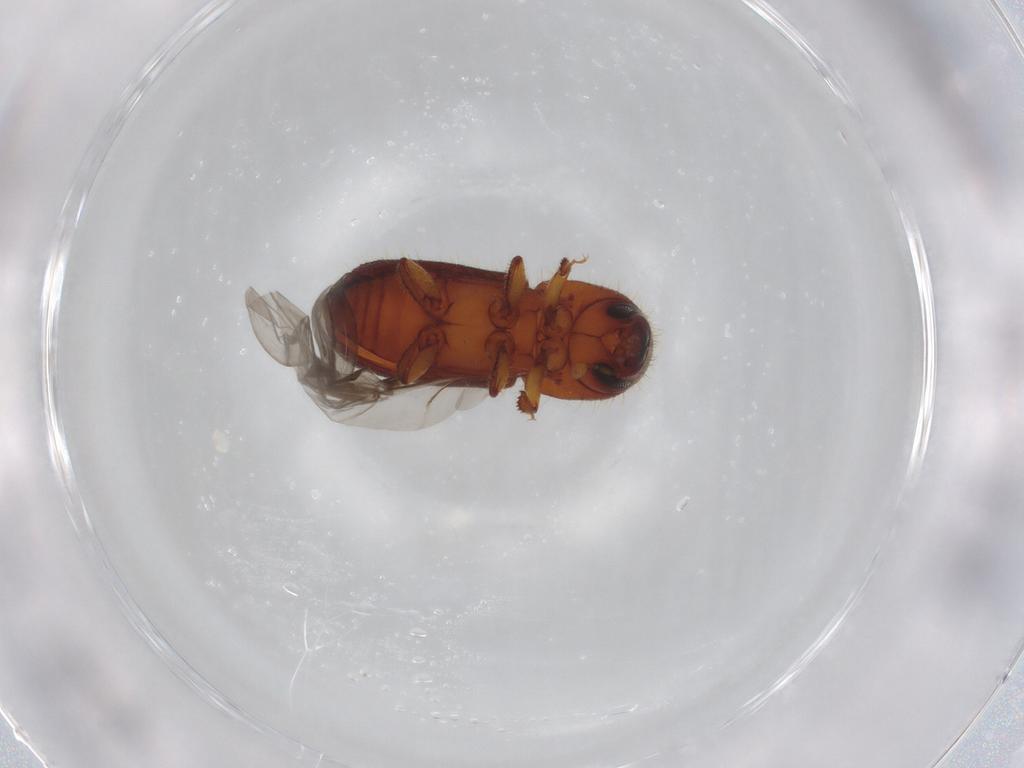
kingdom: Animalia
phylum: Arthropoda
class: Insecta
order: Coleoptera
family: Curculionidae
